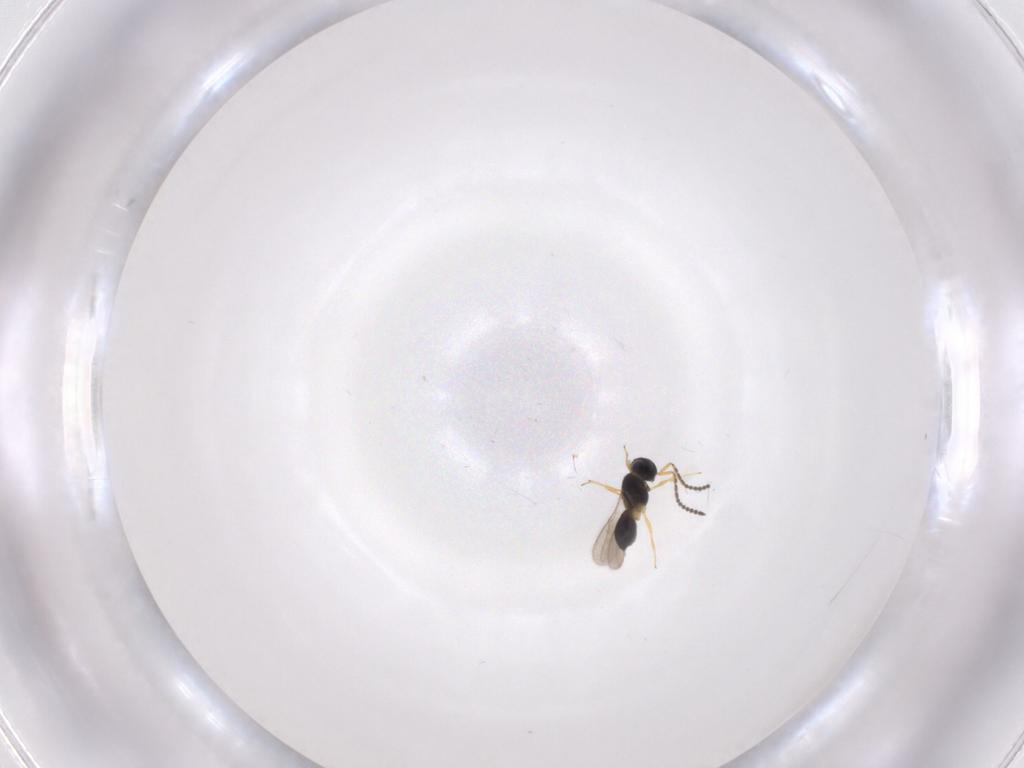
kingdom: Animalia
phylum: Arthropoda
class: Insecta
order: Hymenoptera
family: Scelionidae
